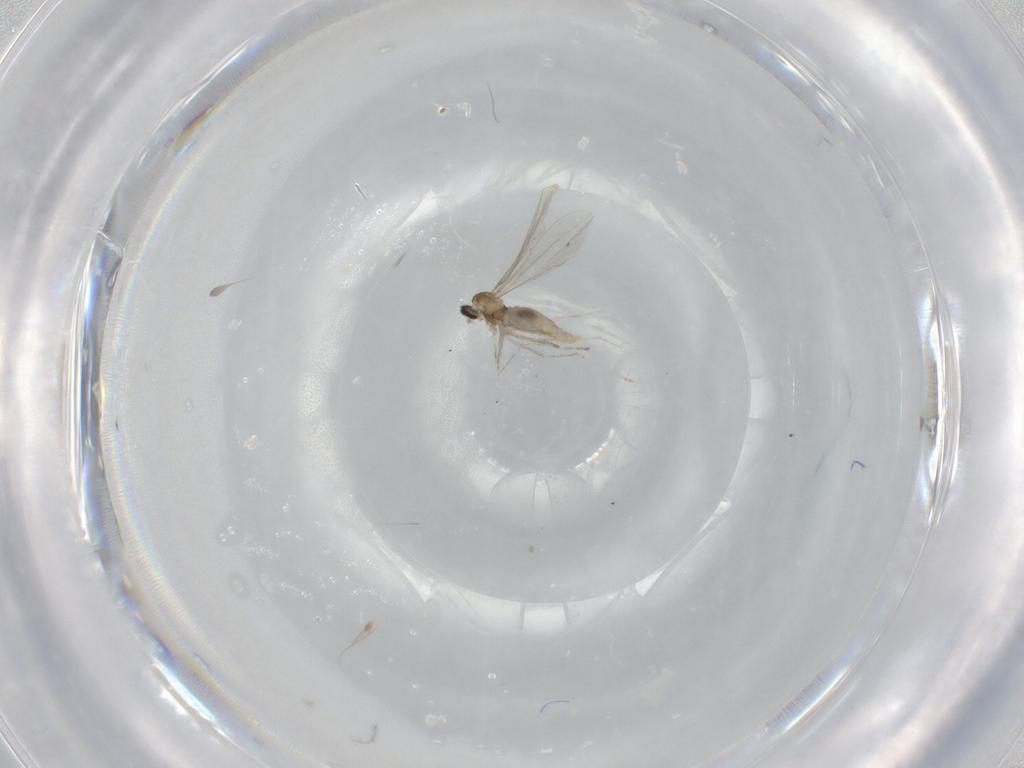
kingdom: Animalia
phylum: Arthropoda
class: Insecta
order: Diptera
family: Cecidomyiidae
